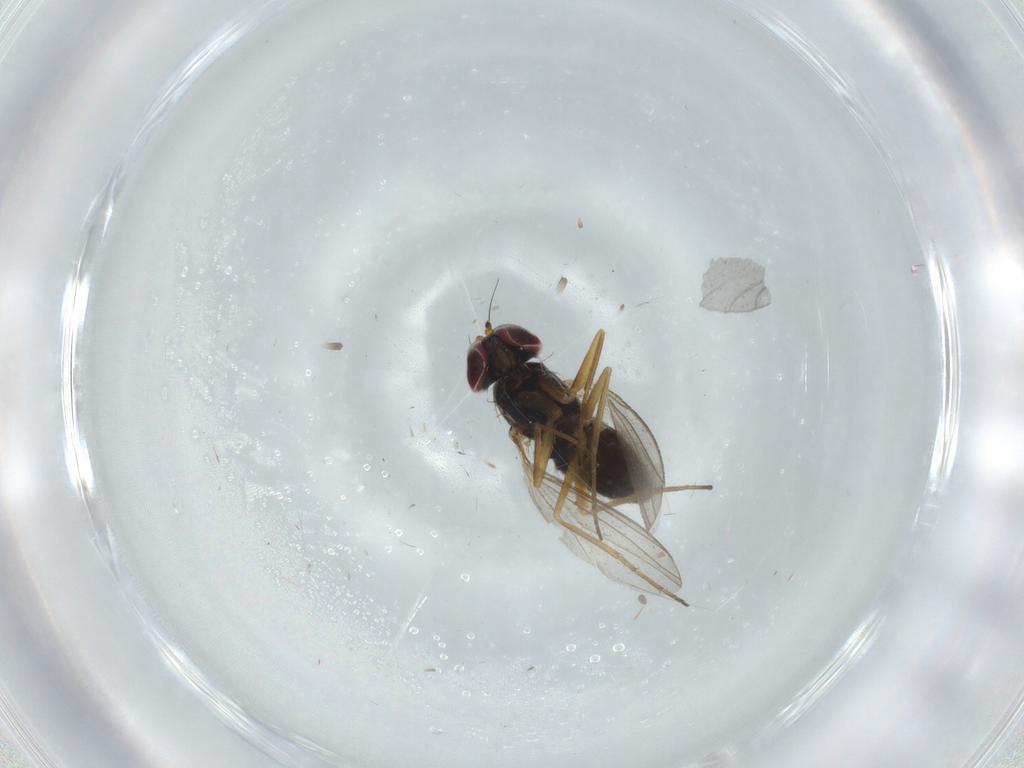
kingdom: Animalia
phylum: Arthropoda
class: Insecta
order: Diptera
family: Dolichopodidae
